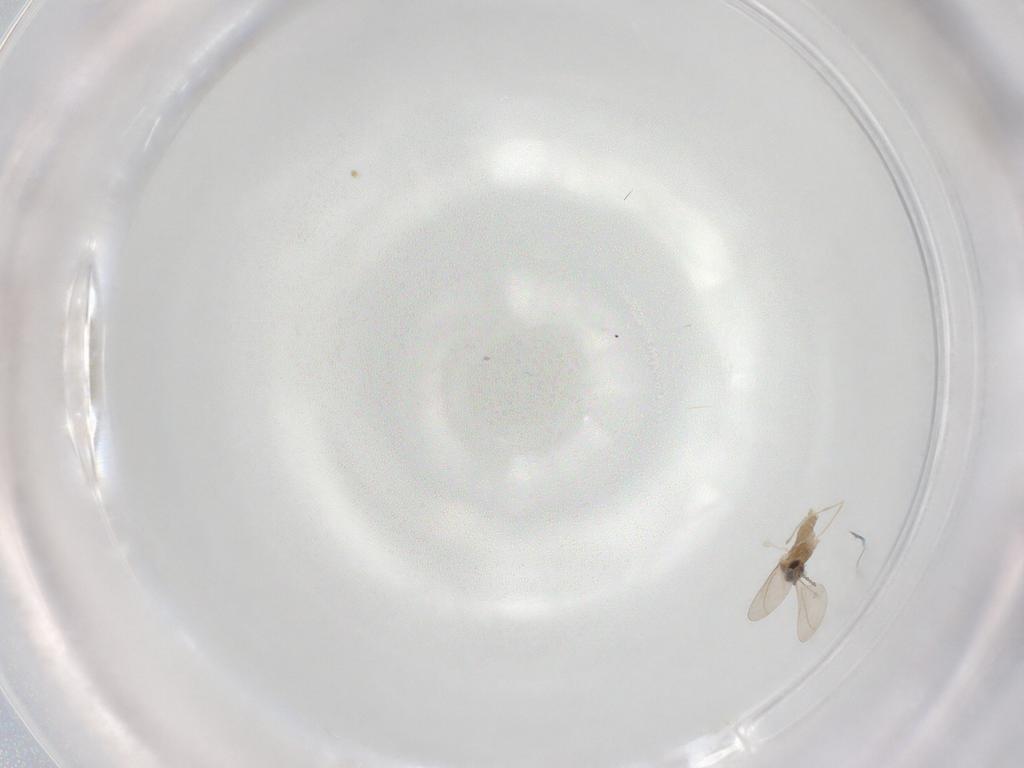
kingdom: Animalia
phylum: Arthropoda
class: Insecta
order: Diptera
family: Cecidomyiidae
